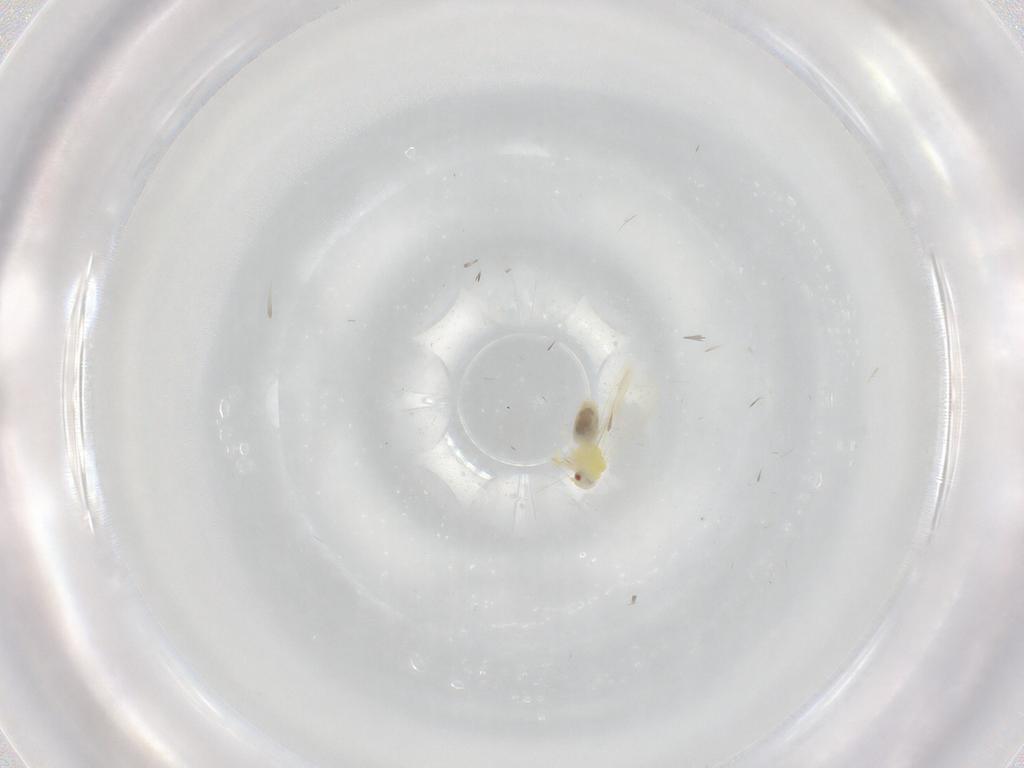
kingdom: Animalia
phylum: Arthropoda
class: Insecta
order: Hemiptera
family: Aleyrodidae
